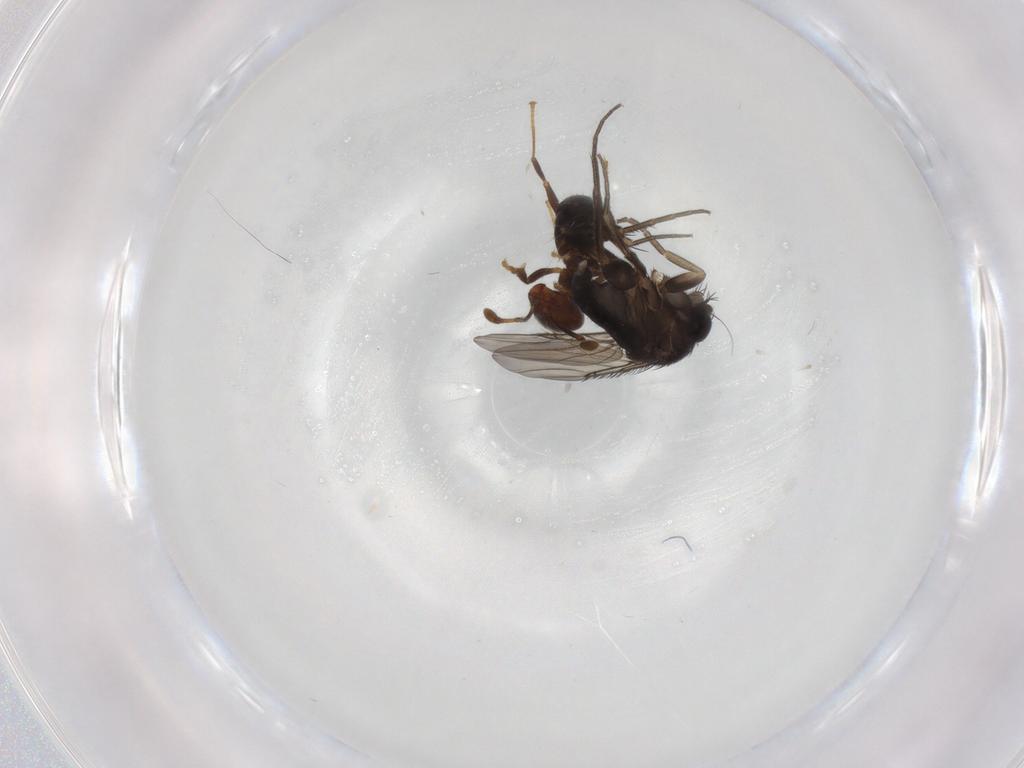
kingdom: Animalia
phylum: Arthropoda
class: Insecta
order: Diptera
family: Phoridae
